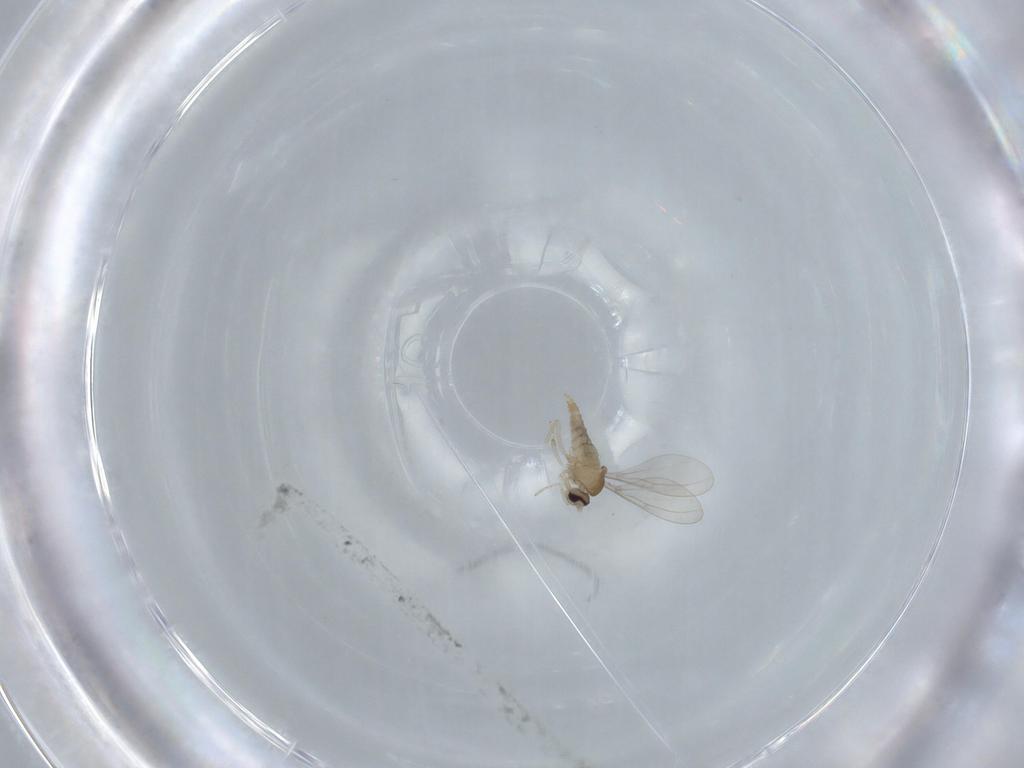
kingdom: Animalia
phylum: Arthropoda
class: Insecta
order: Diptera
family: Cecidomyiidae
